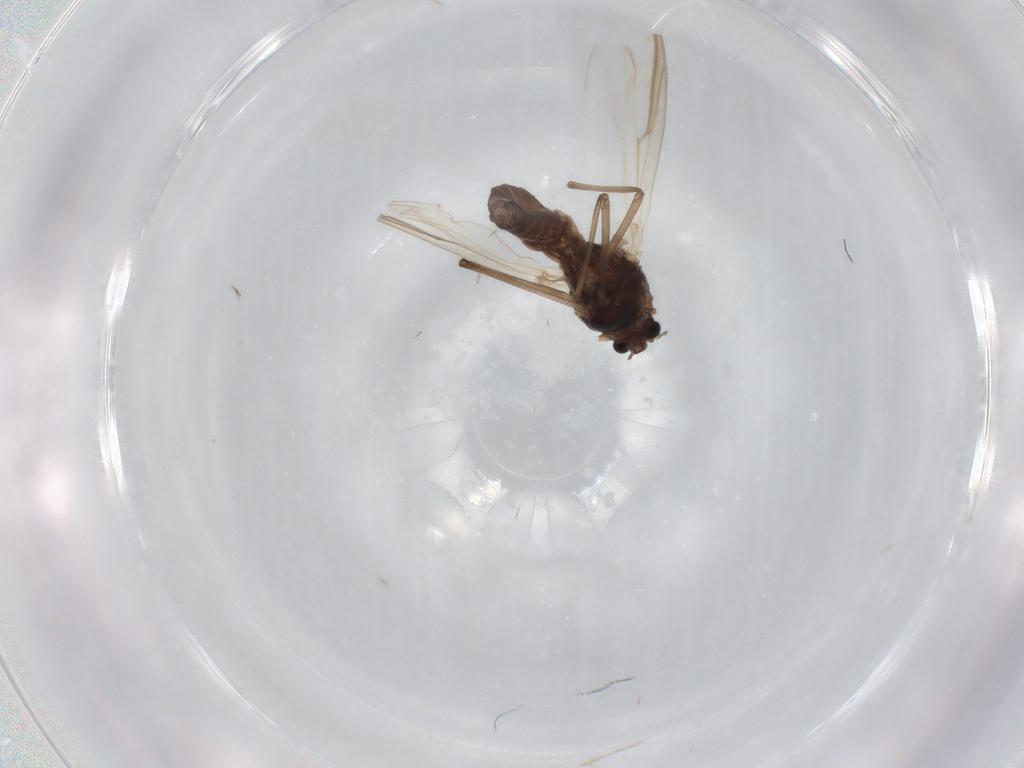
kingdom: Animalia
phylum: Arthropoda
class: Insecta
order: Diptera
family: Chironomidae
